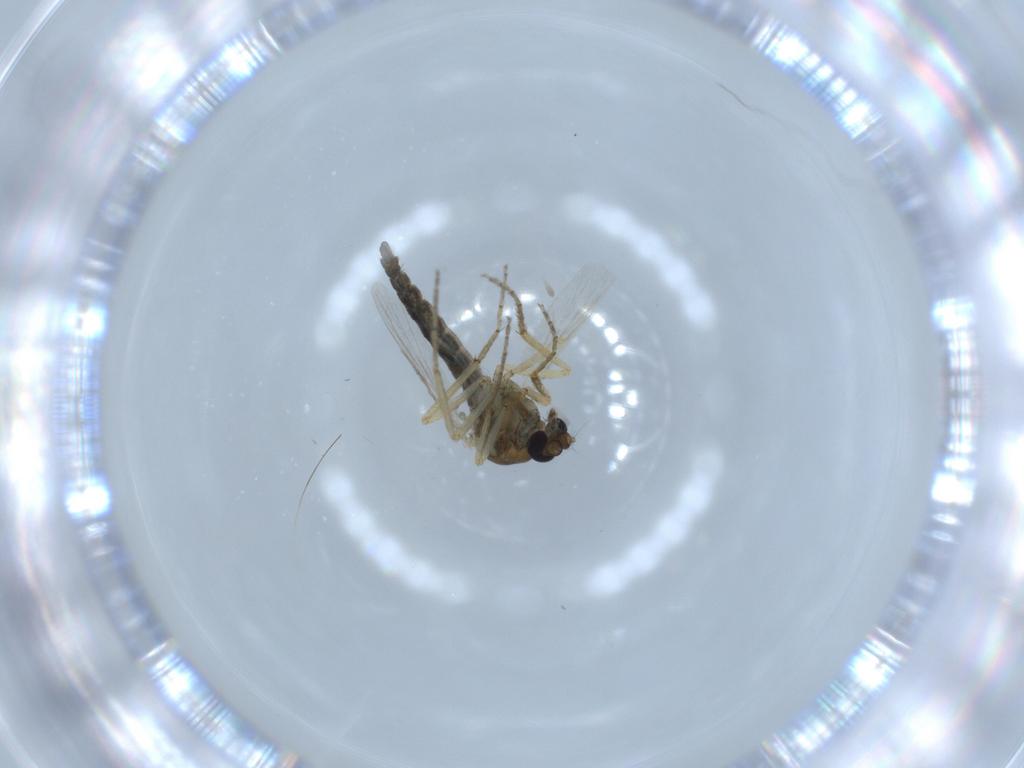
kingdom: Animalia
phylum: Arthropoda
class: Insecta
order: Diptera
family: Ceratopogonidae
